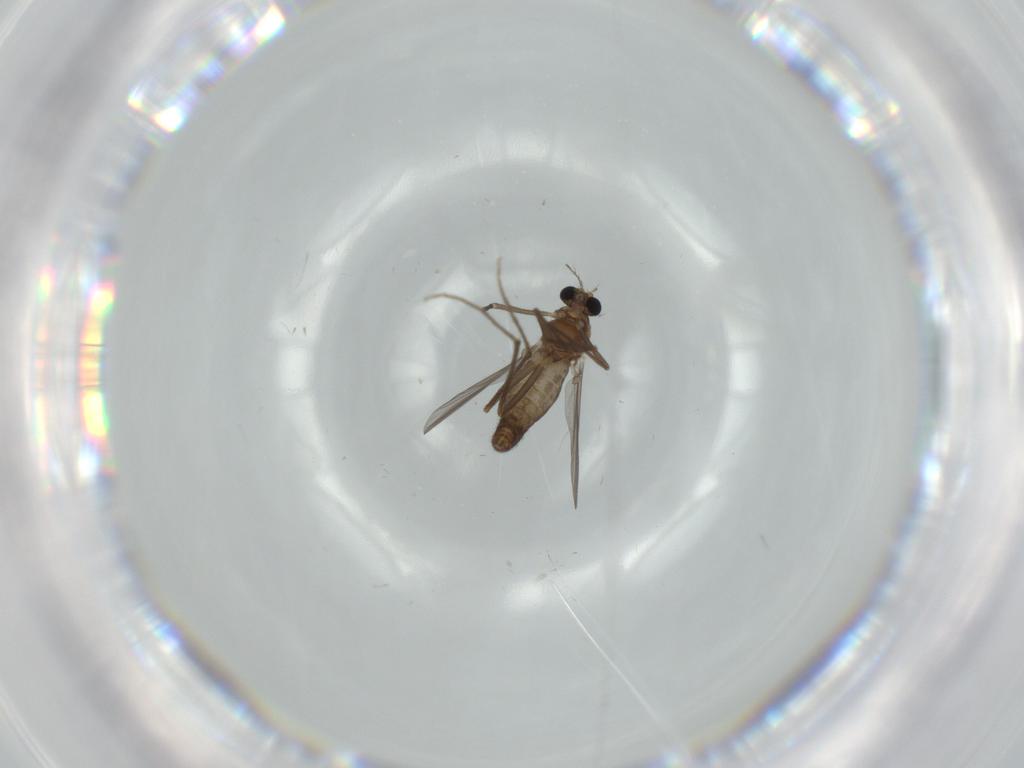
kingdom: Animalia
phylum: Arthropoda
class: Insecta
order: Diptera
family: Chironomidae
